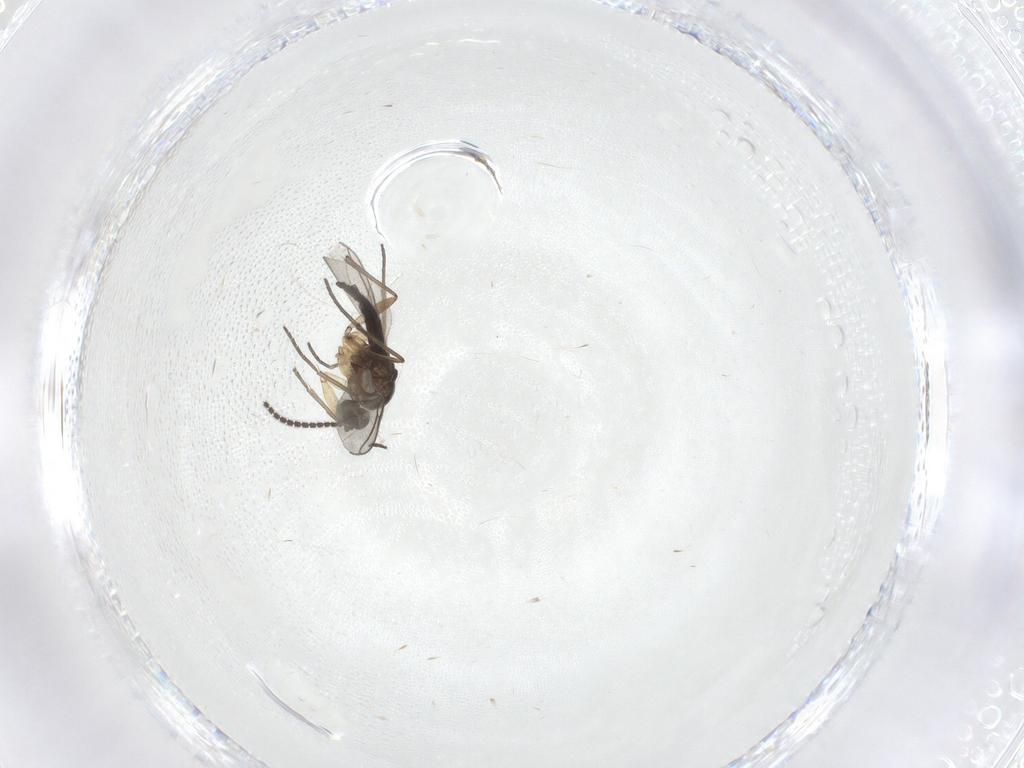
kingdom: Animalia
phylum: Arthropoda
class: Insecta
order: Diptera
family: Sciaridae
